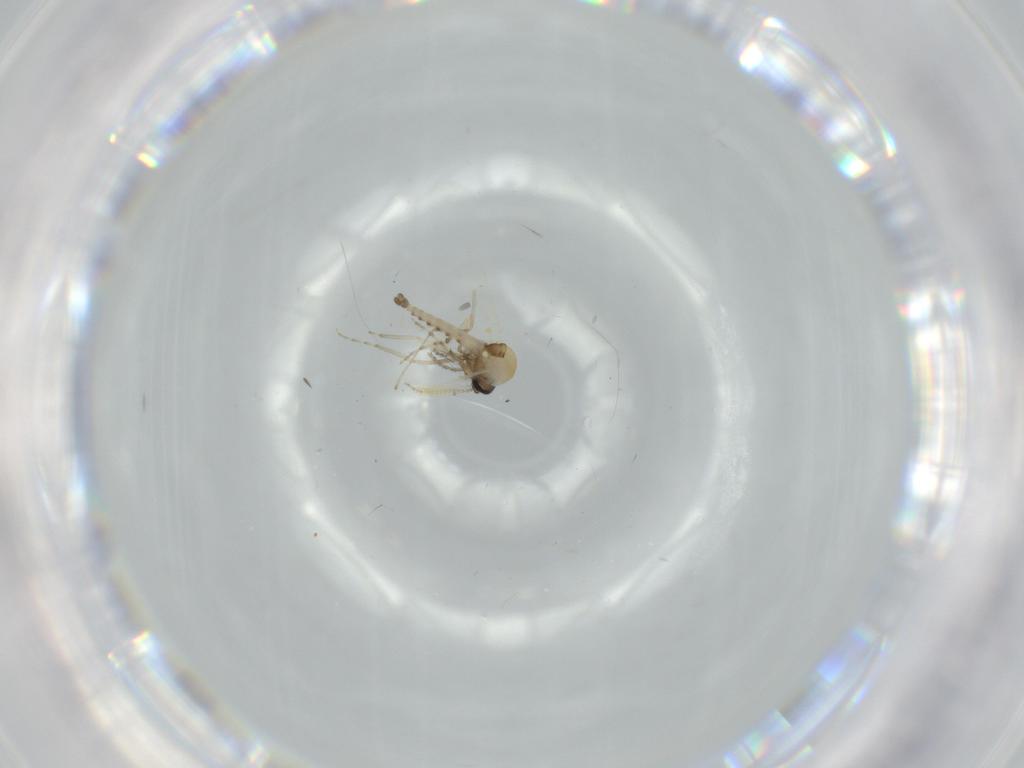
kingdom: Animalia
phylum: Arthropoda
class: Insecta
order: Diptera
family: Cecidomyiidae
